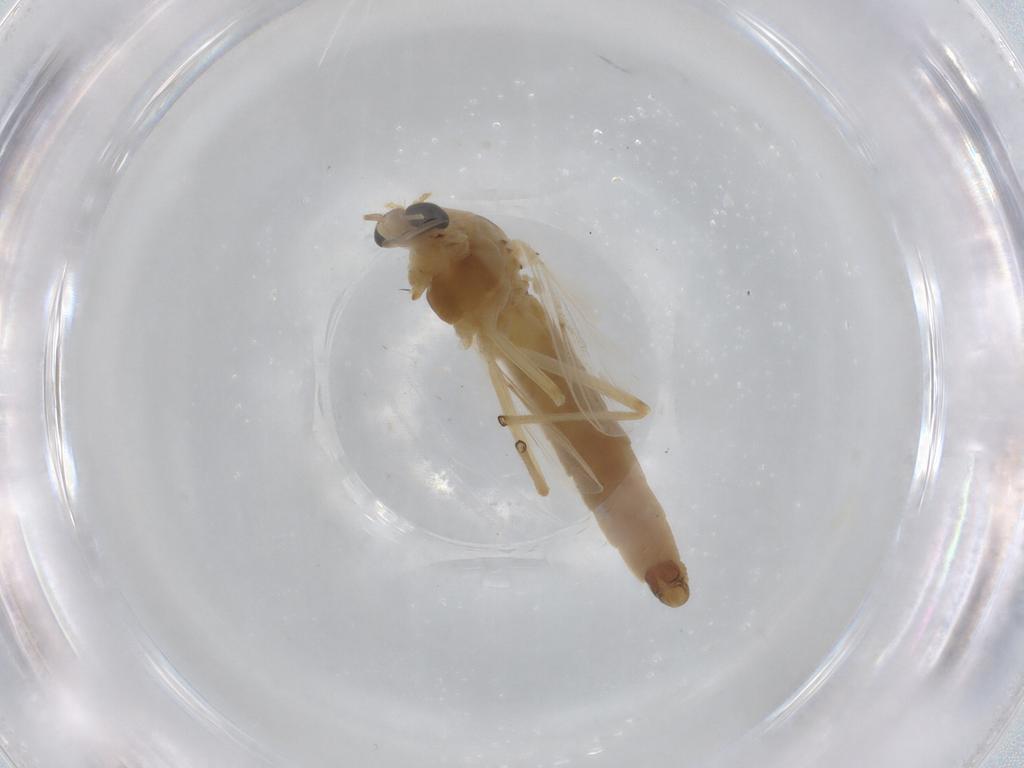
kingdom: Animalia
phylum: Arthropoda
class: Insecta
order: Diptera
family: Ceratopogonidae
